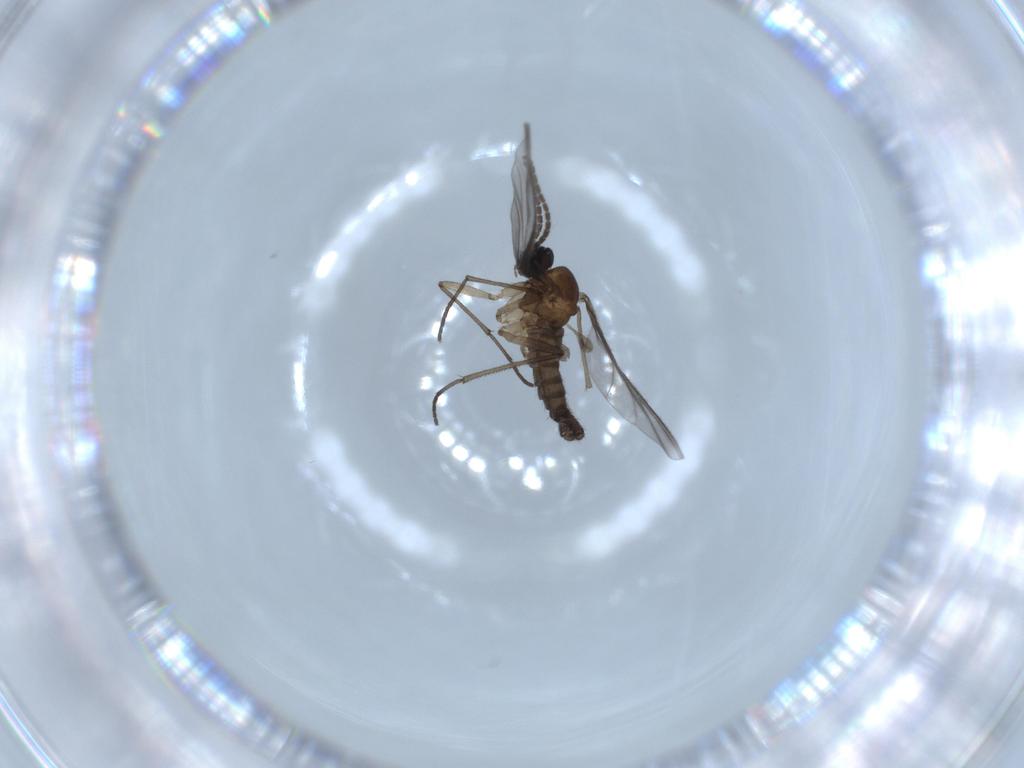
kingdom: Animalia
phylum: Arthropoda
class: Insecta
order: Diptera
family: Sciaridae
